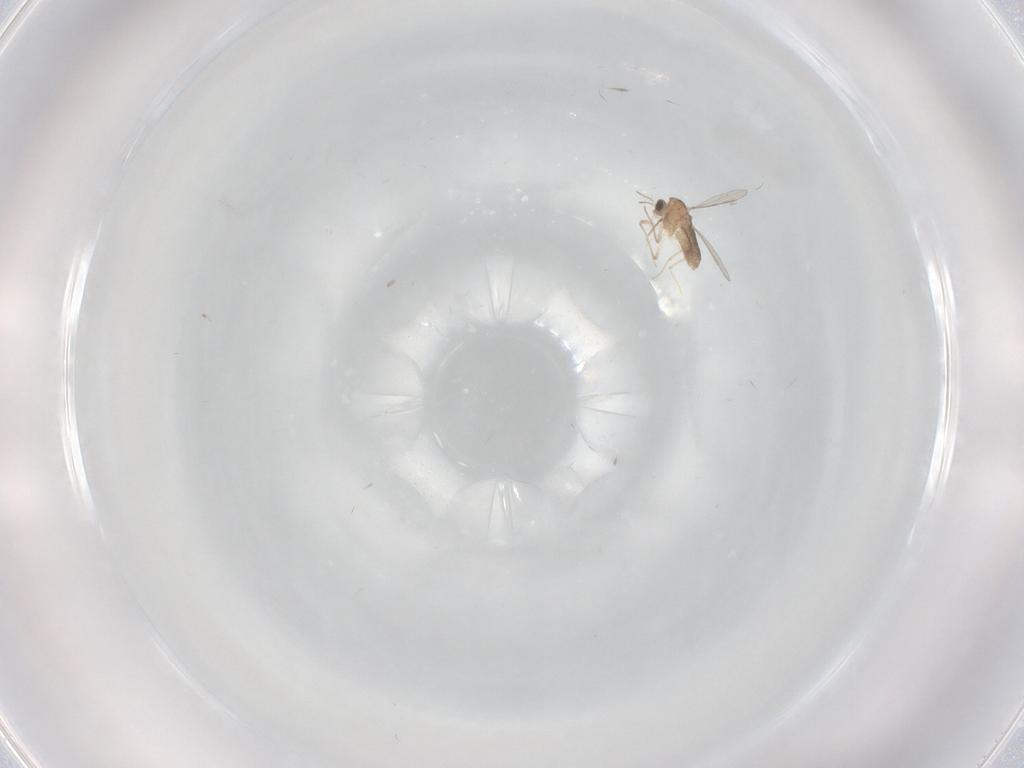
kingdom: Animalia
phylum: Arthropoda
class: Insecta
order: Diptera
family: Cecidomyiidae
